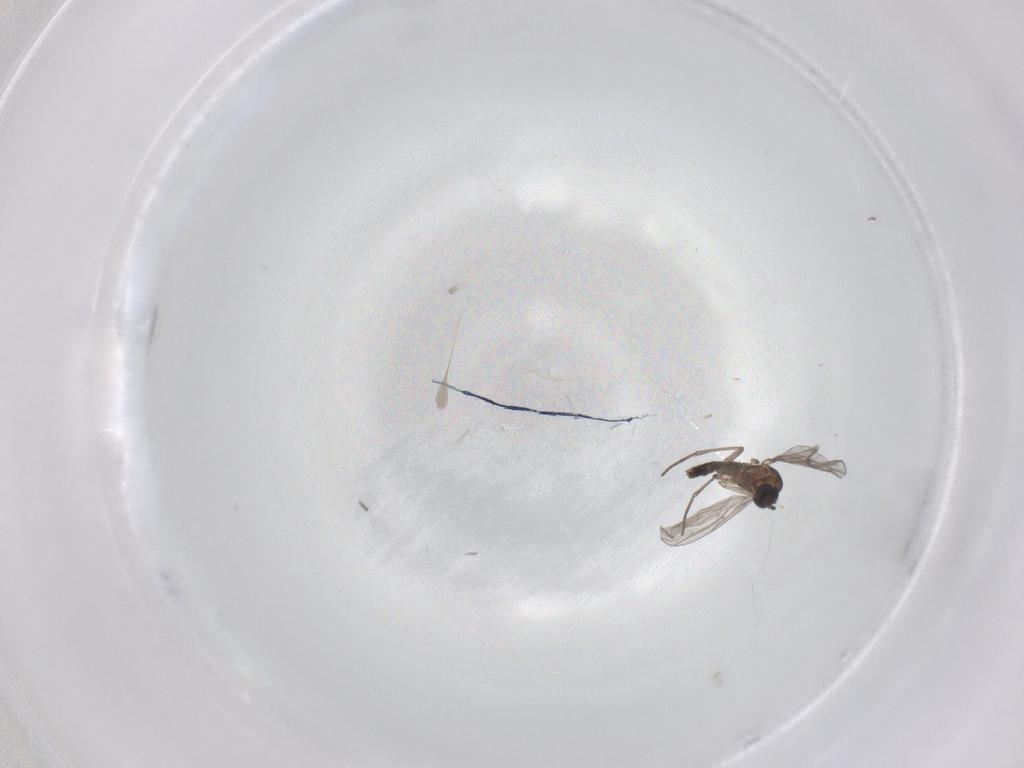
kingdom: Animalia
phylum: Arthropoda
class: Insecta
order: Diptera
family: Sciaridae
